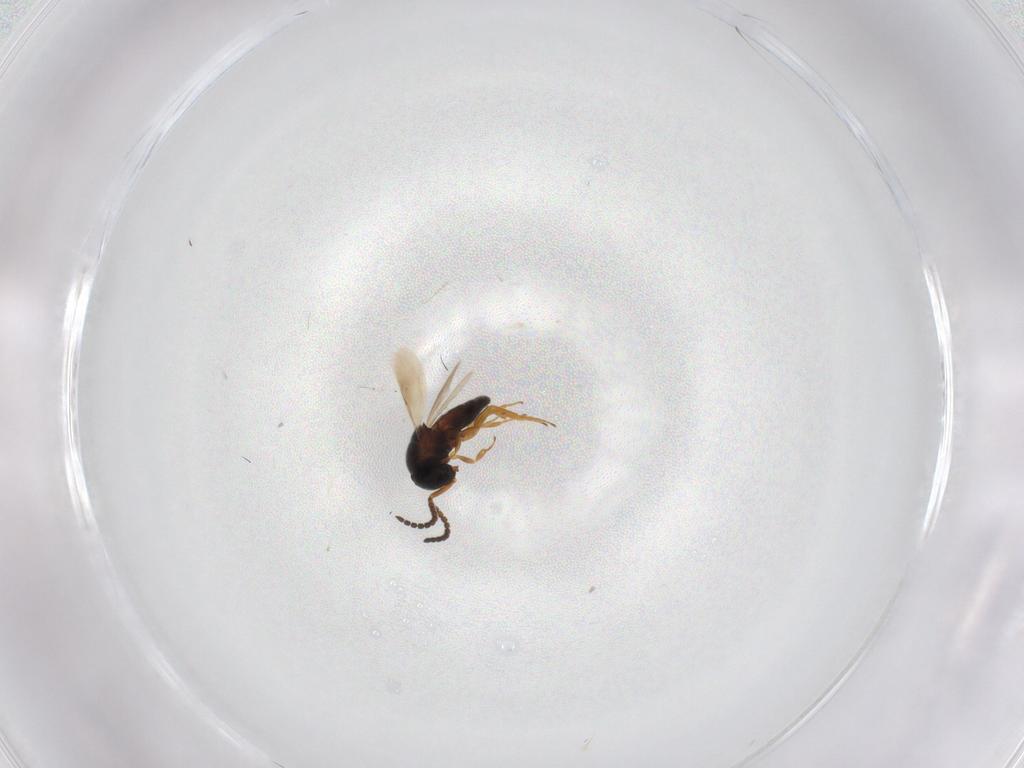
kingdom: Animalia
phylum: Arthropoda
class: Insecta
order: Hymenoptera
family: Scelionidae
